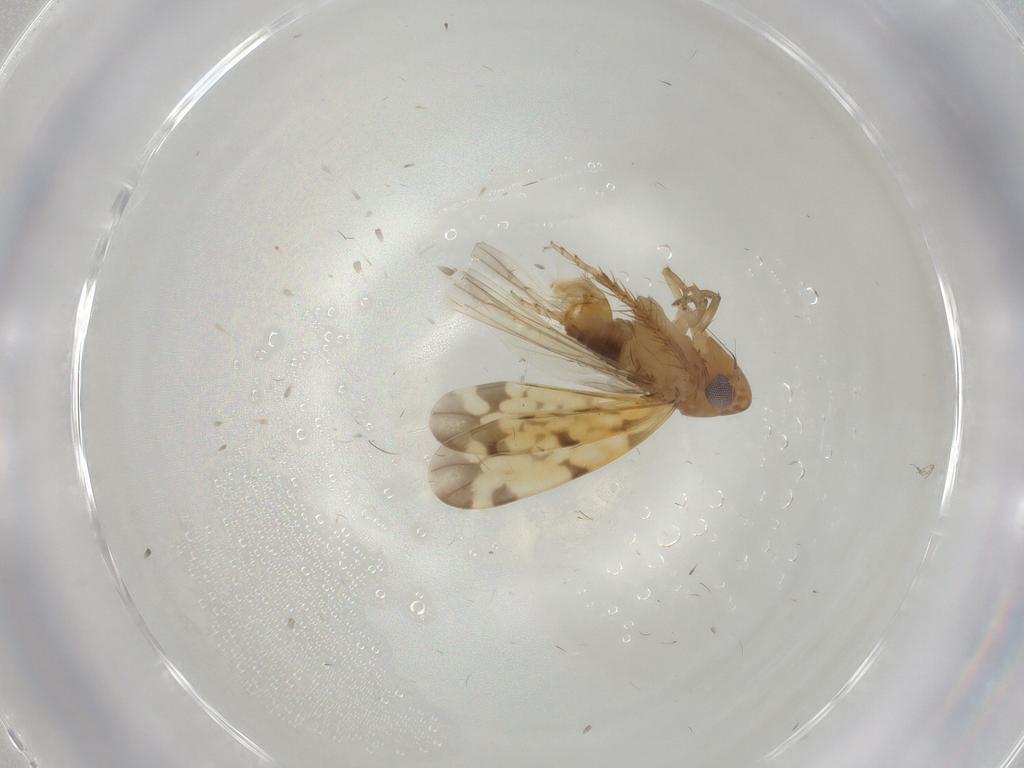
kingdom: Animalia
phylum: Arthropoda
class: Insecta
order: Hemiptera
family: Cicadellidae
